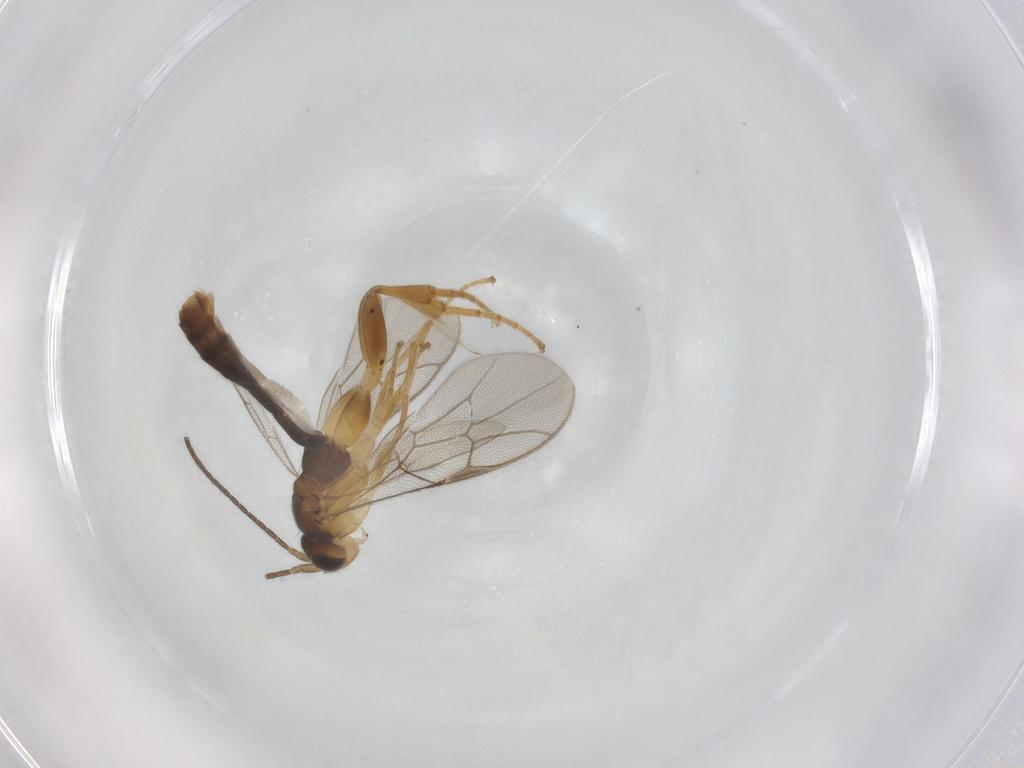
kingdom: Animalia
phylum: Arthropoda
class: Insecta
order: Hymenoptera
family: Ichneumonidae
